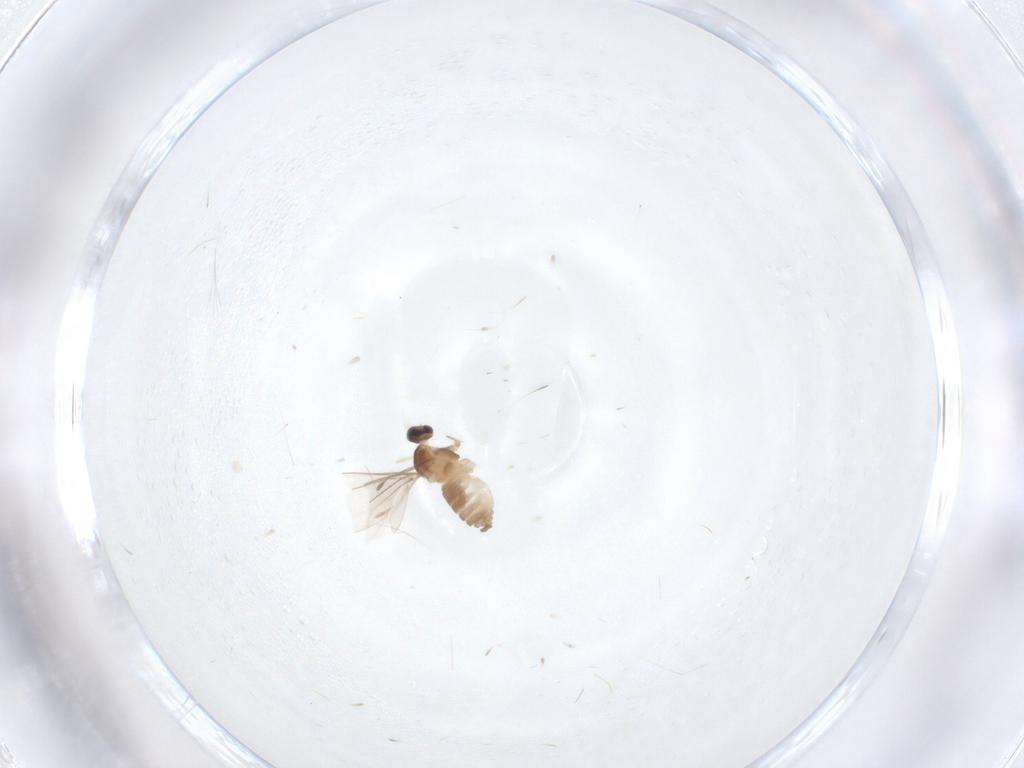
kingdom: Animalia
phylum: Arthropoda
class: Insecta
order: Diptera
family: Cecidomyiidae
